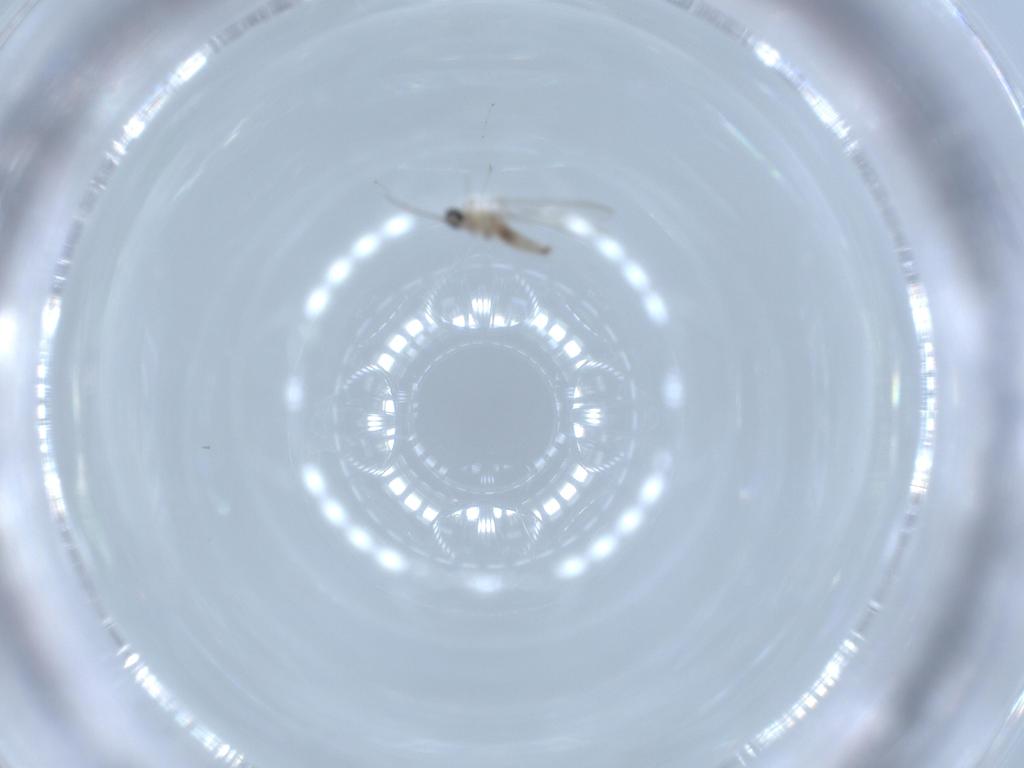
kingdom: Animalia
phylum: Arthropoda
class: Insecta
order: Diptera
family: Cecidomyiidae
